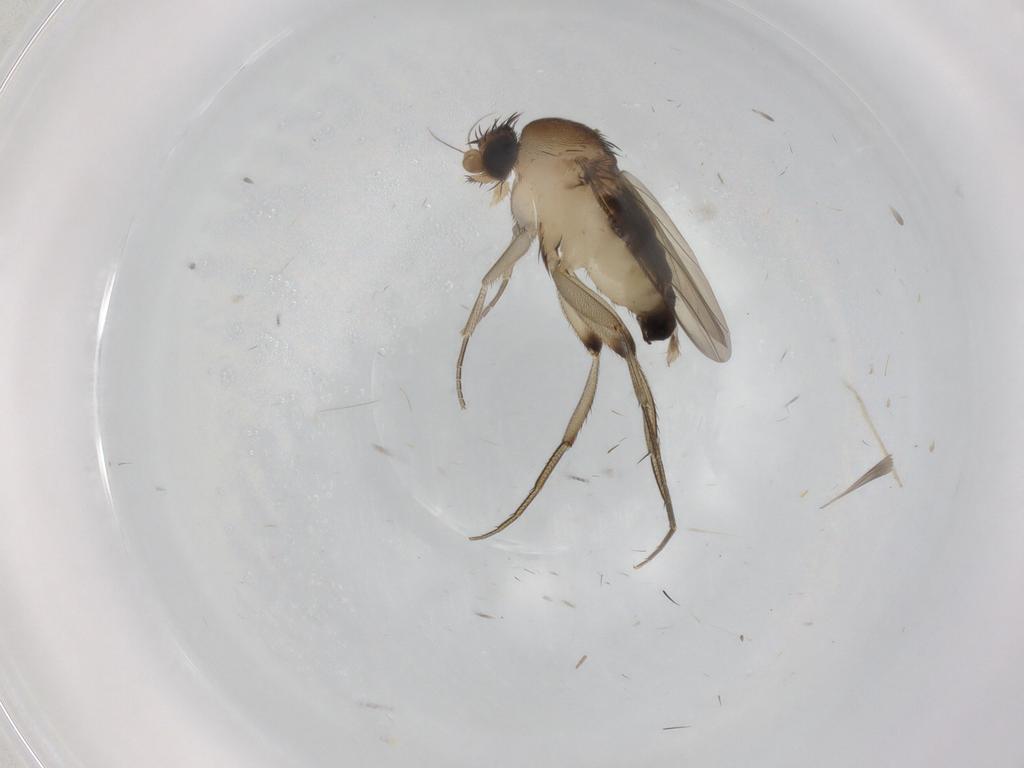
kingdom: Animalia
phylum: Arthropoda
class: Insecta
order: Diptera
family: Phoridae
